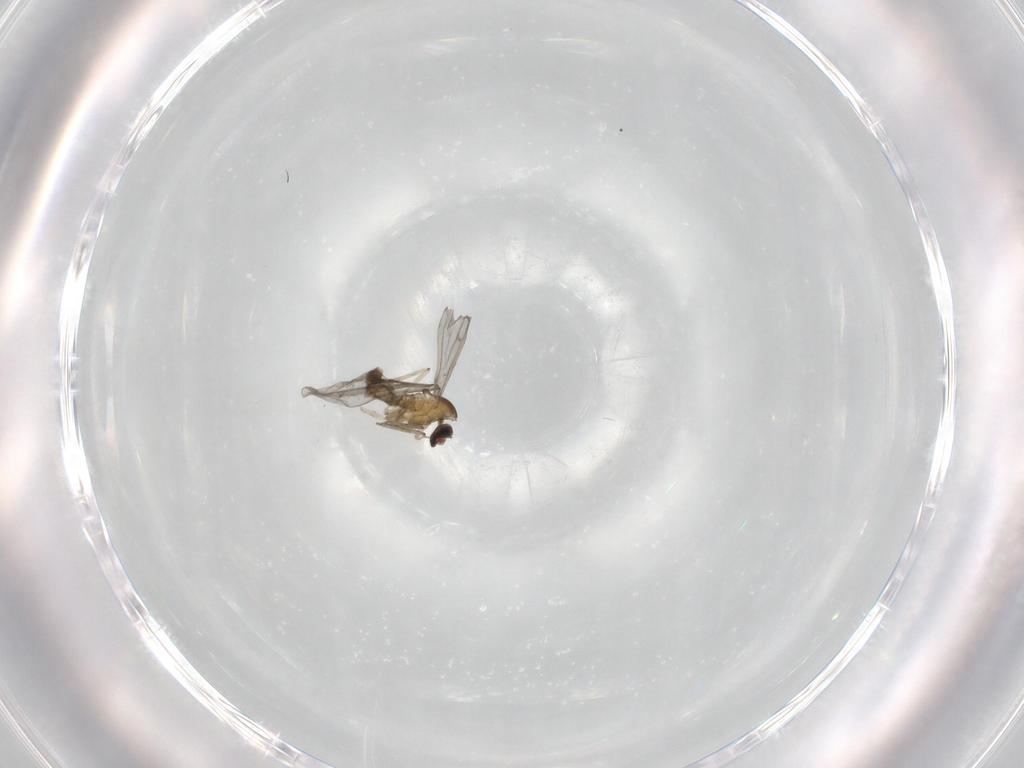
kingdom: Animalia
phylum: Arthropoda
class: Insecta
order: Diptera
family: Cecidomyiidae
